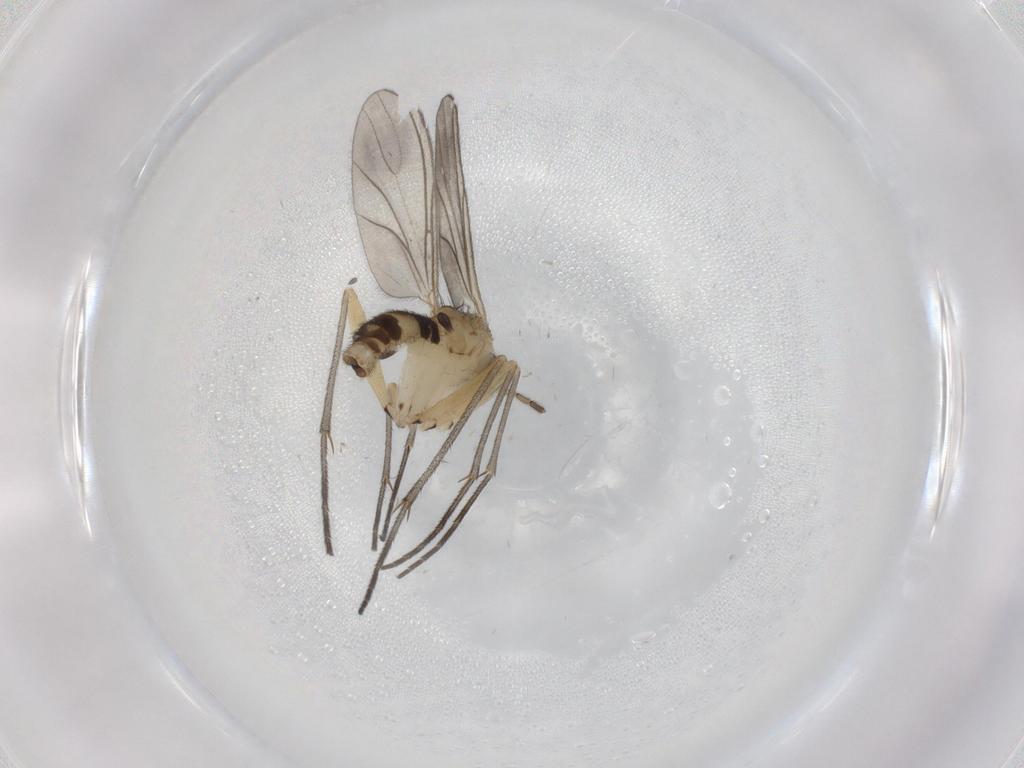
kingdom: Animalia
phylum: Arthropoda
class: Insecta
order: Diptera
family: Sciaridae
